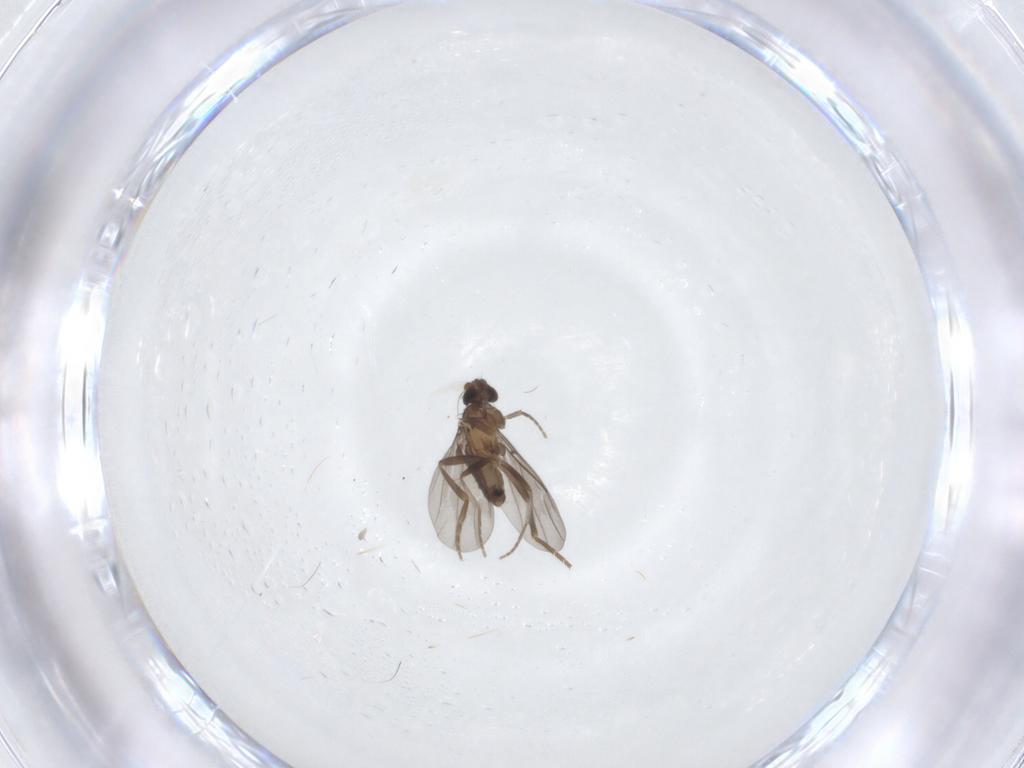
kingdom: Animalia
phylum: Arthropoda
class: Insecta
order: Diptera
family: Phoridae
